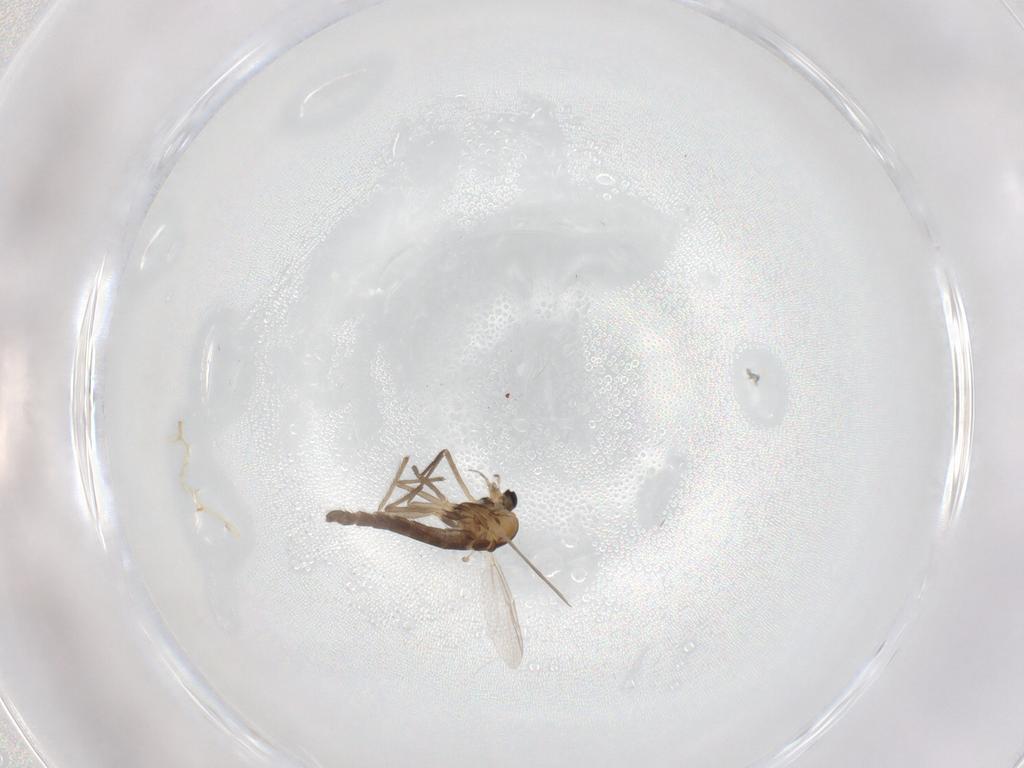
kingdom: Animalia
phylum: Arthropoda
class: Insecta
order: Diptera
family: Chironomidae
